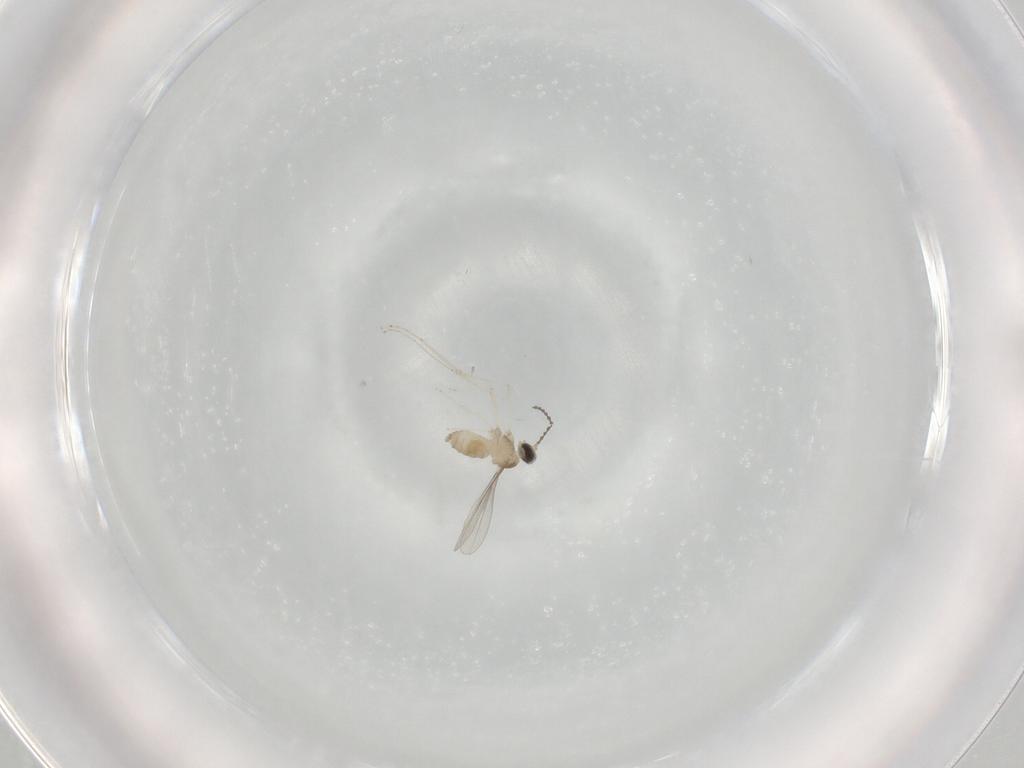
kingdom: Animalia
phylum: Arthropoda
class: Insecta
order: Diptera
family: Cecidomyiidae
